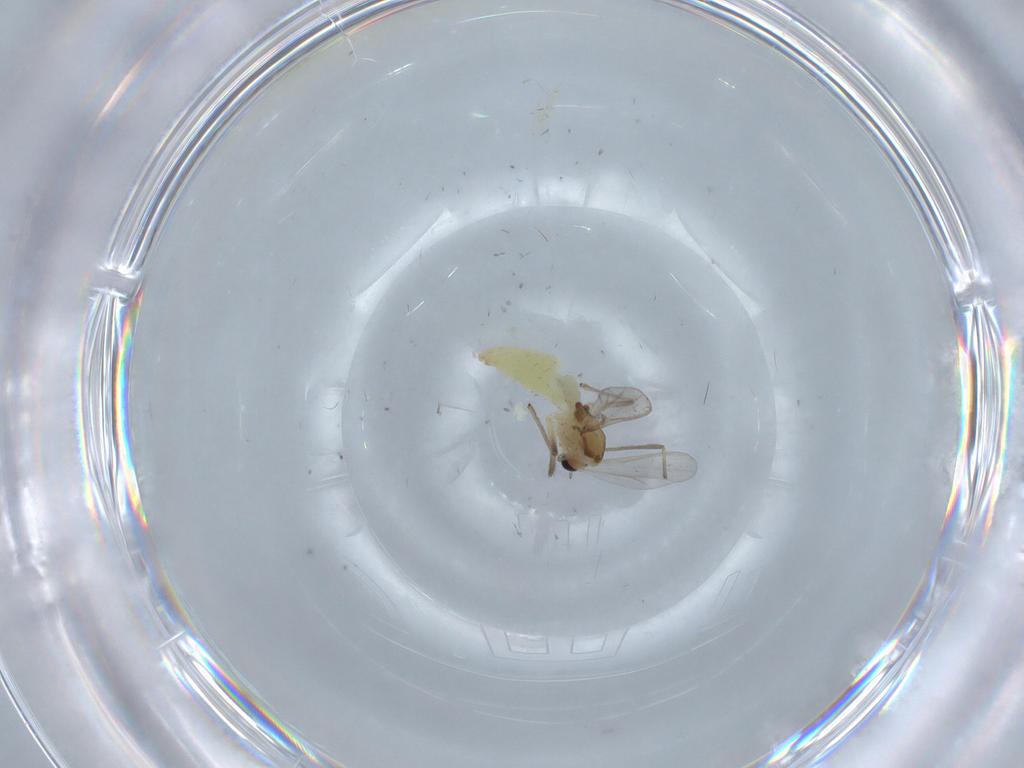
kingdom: Animalia
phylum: Arthropoda
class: Insecta
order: Diptera
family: Chironomidae
